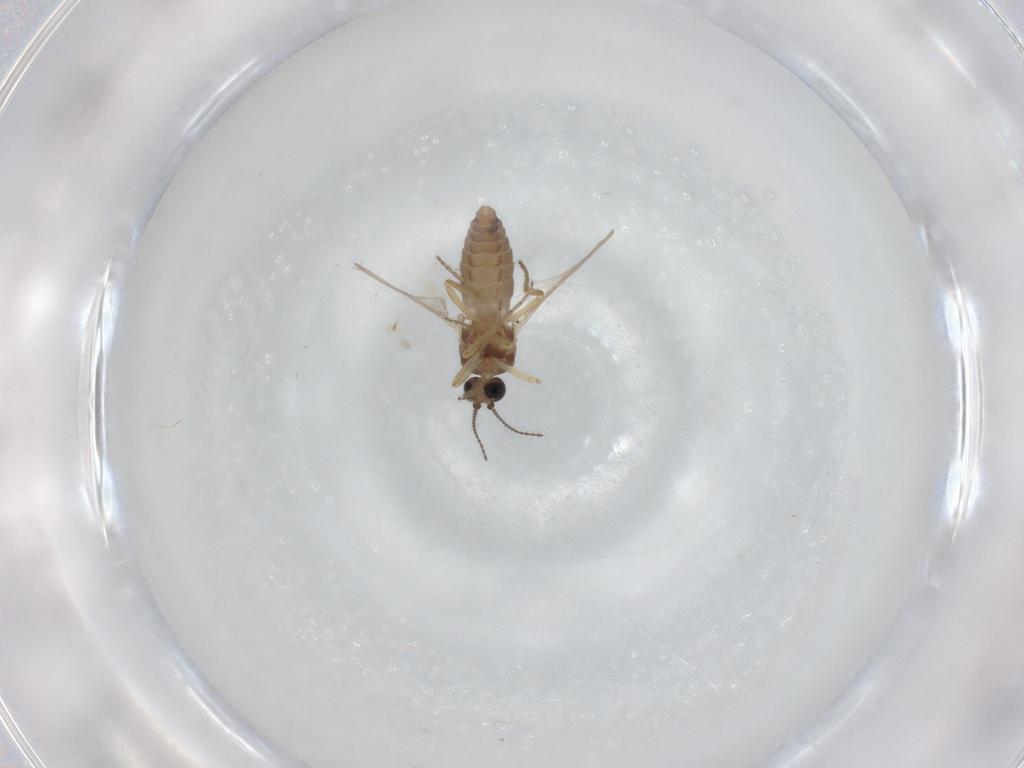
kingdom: Animalia
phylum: Arthropoda
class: Insecta
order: Diptera
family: Ceratopogonidae
